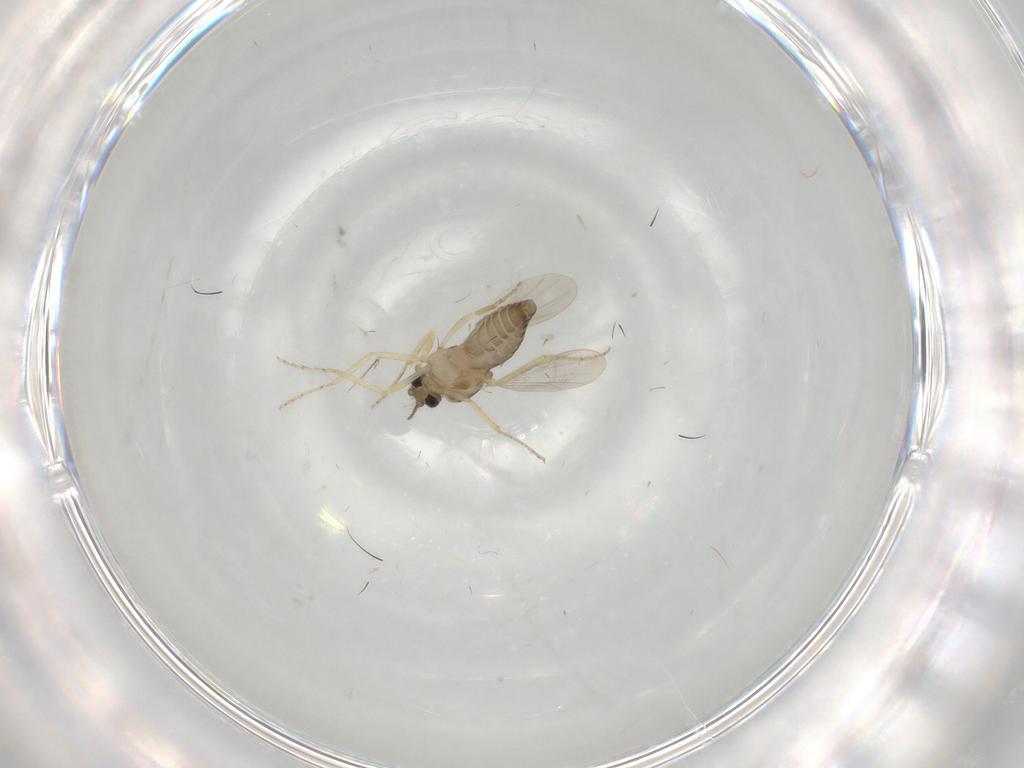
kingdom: Animalia
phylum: Arthropoda
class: Insecta
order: Diptera
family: Ceratopogonidae
